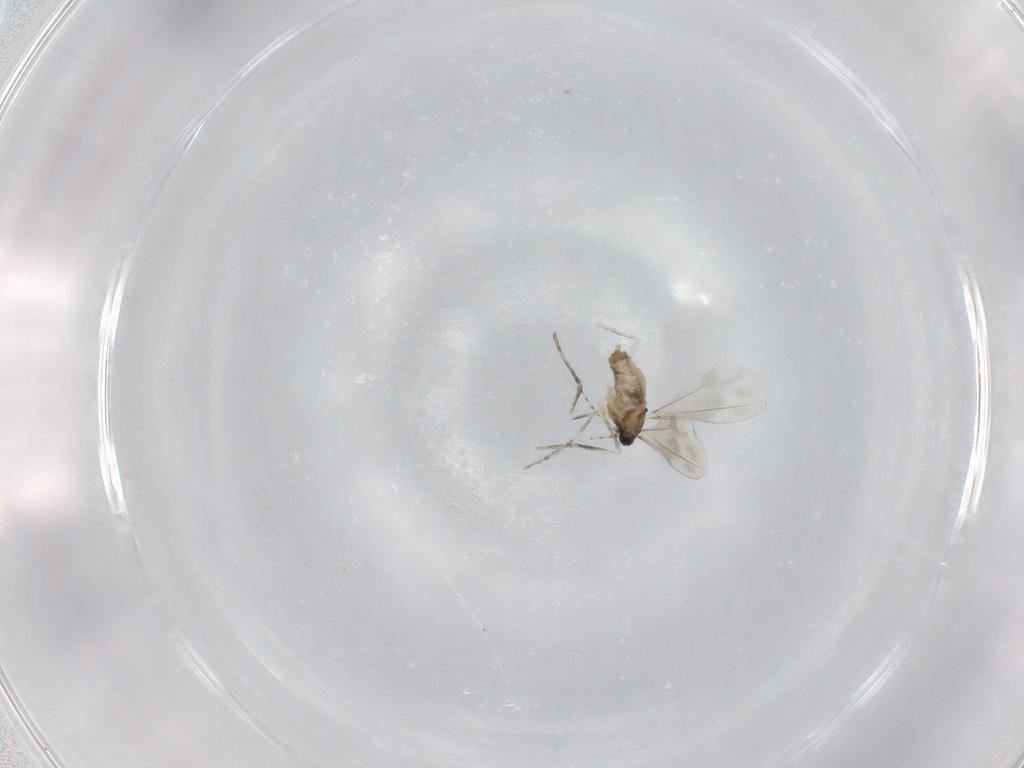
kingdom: Animalia
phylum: Arthropoda
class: Insecta
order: Diptera
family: Cecidomyiidae
